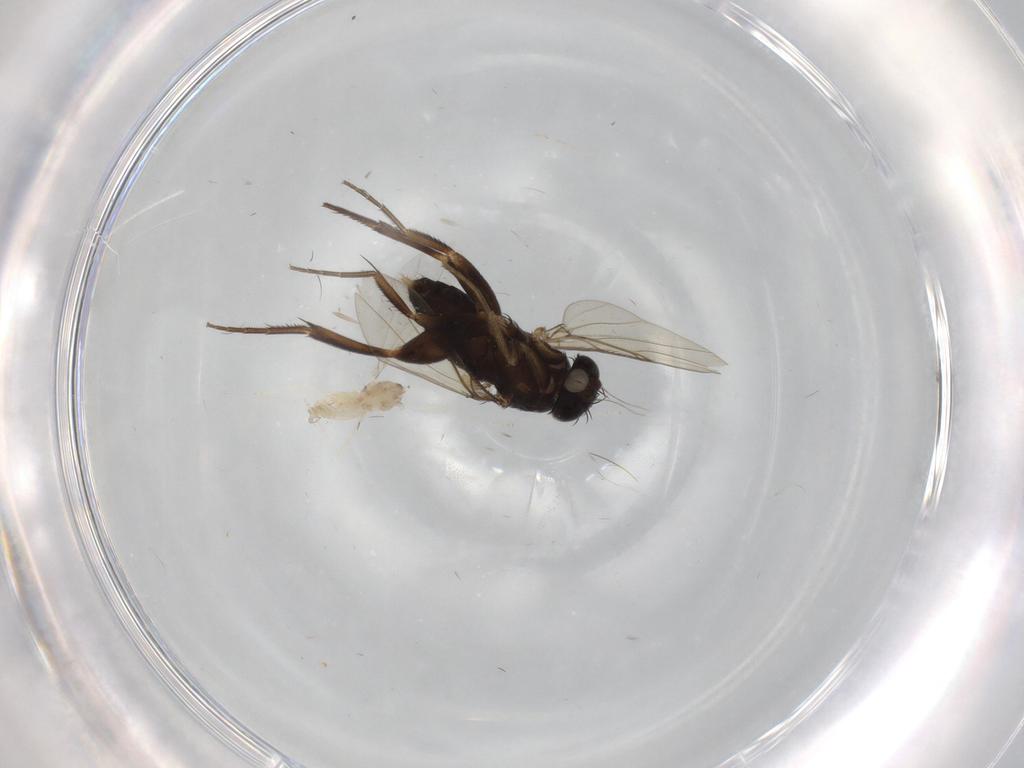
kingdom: Animalia
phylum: Arthropoda
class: Insecta
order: Diptera
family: Phoridae
